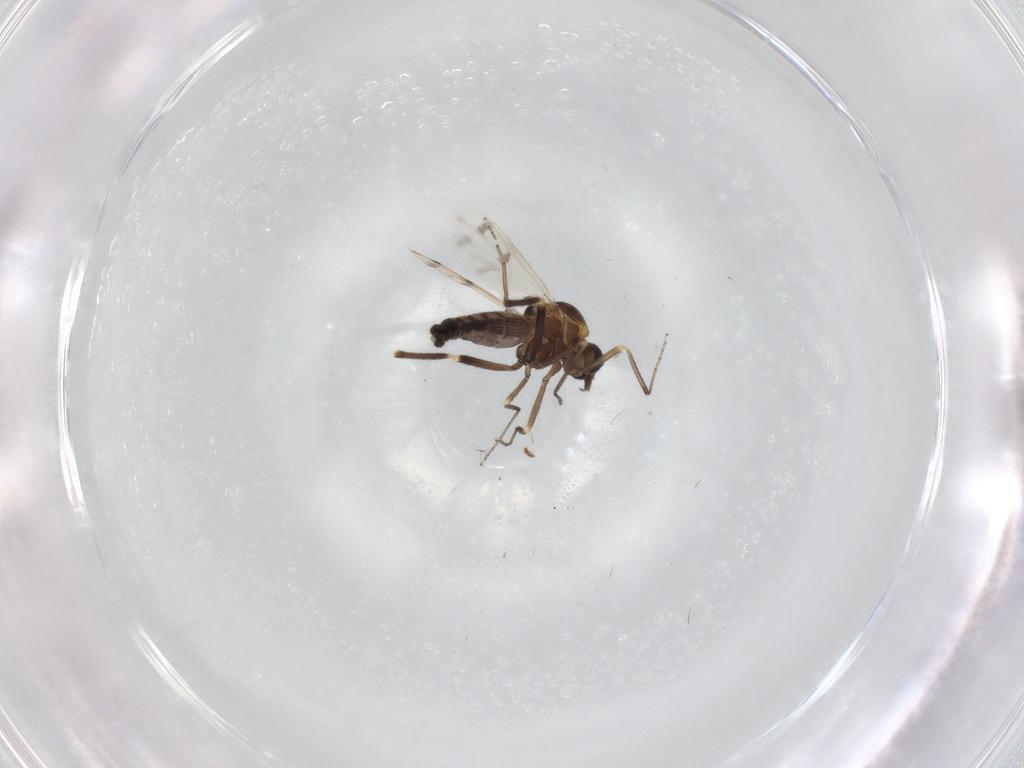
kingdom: Animalia
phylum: Arthropoda
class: Insecta
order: Diptera
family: Ceratopogonidae
